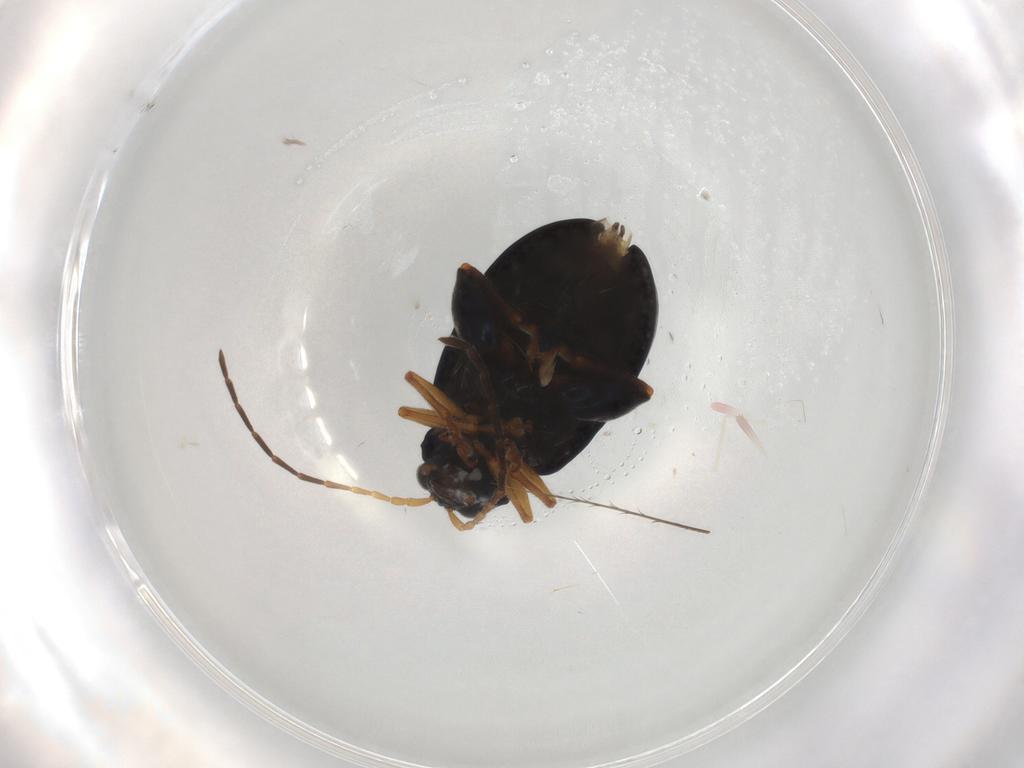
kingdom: Animalia
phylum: Arthropoda
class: Insecta
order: Coleoptera
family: Chrysomelidae
